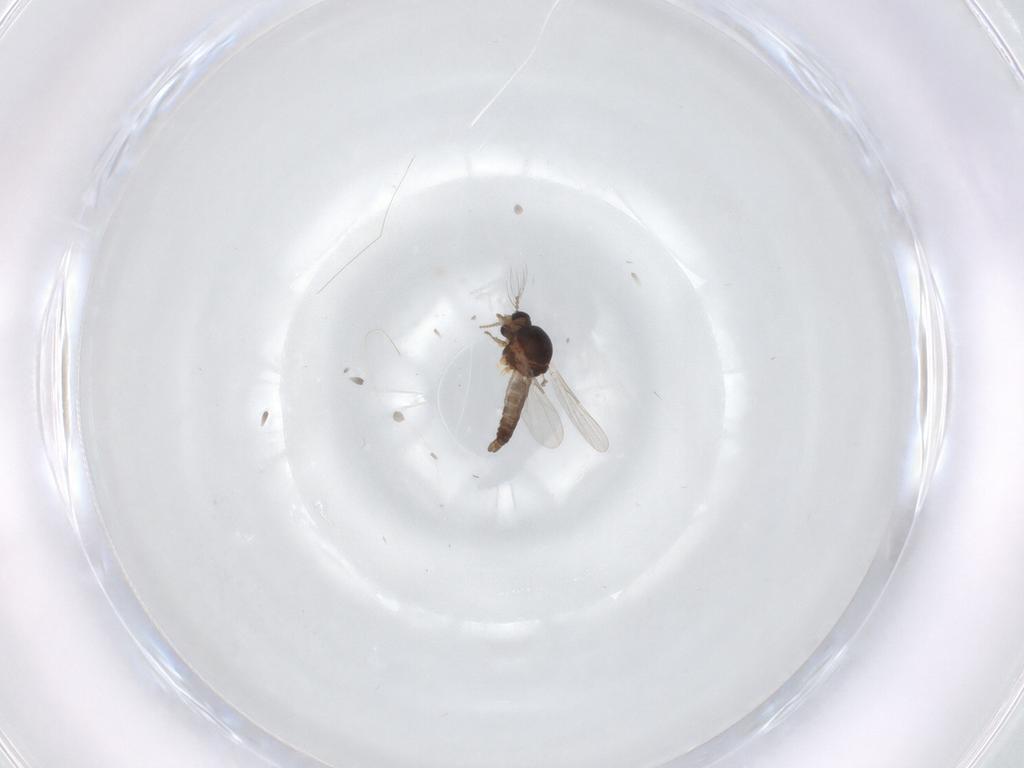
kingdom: Animalia
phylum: Arthropoda
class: Insecta
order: Diptera
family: Ceratopogonidae
